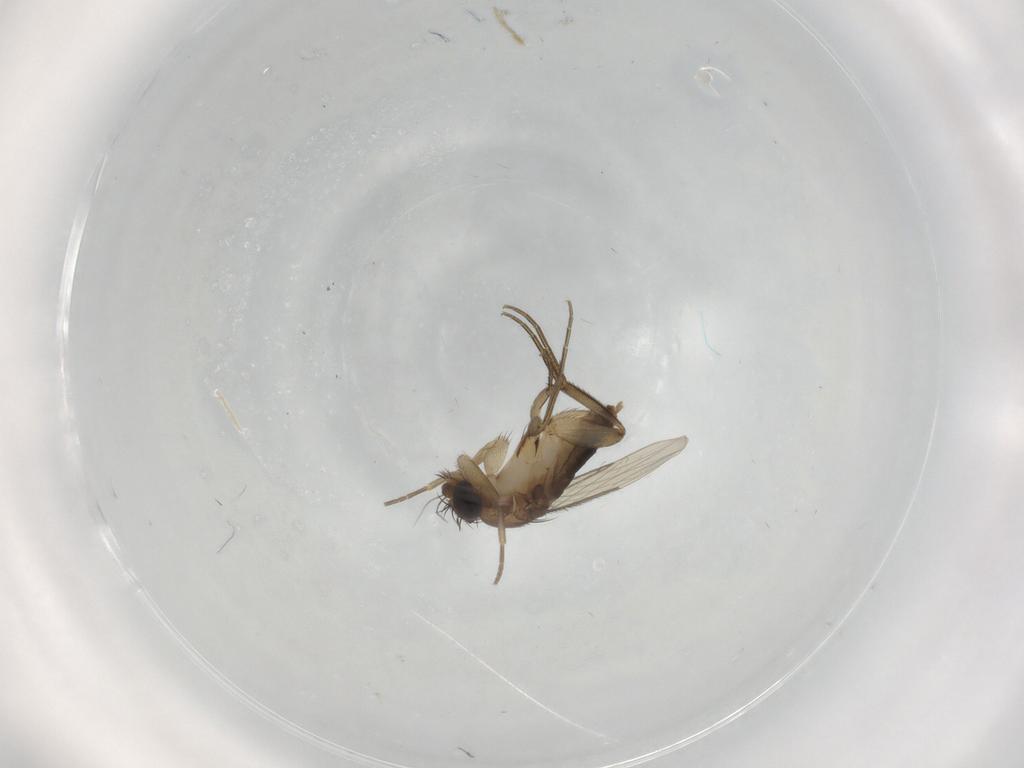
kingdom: Animalia
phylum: Arthropoda
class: Insecta
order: Diptera
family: Phoridae
